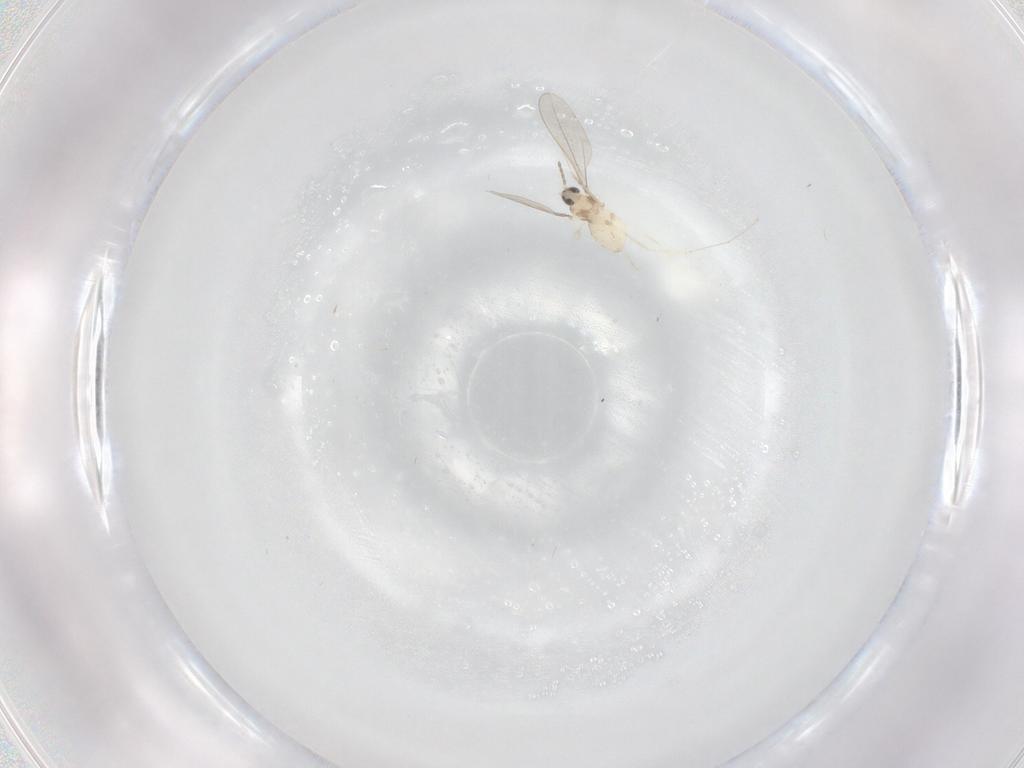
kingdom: Animalia
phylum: Arthropoda
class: Insecta
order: Diptera
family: Cecidomyiidae
